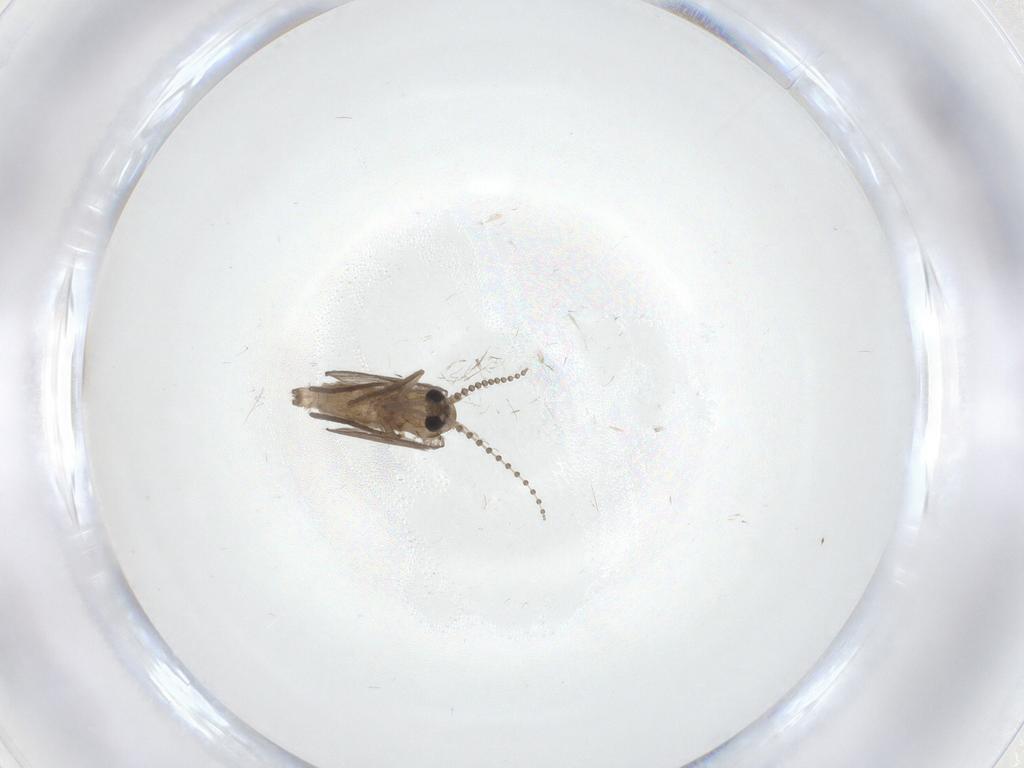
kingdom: Animalia
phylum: Arthropoda
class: Insecta
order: Diptera
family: Psychodidae
